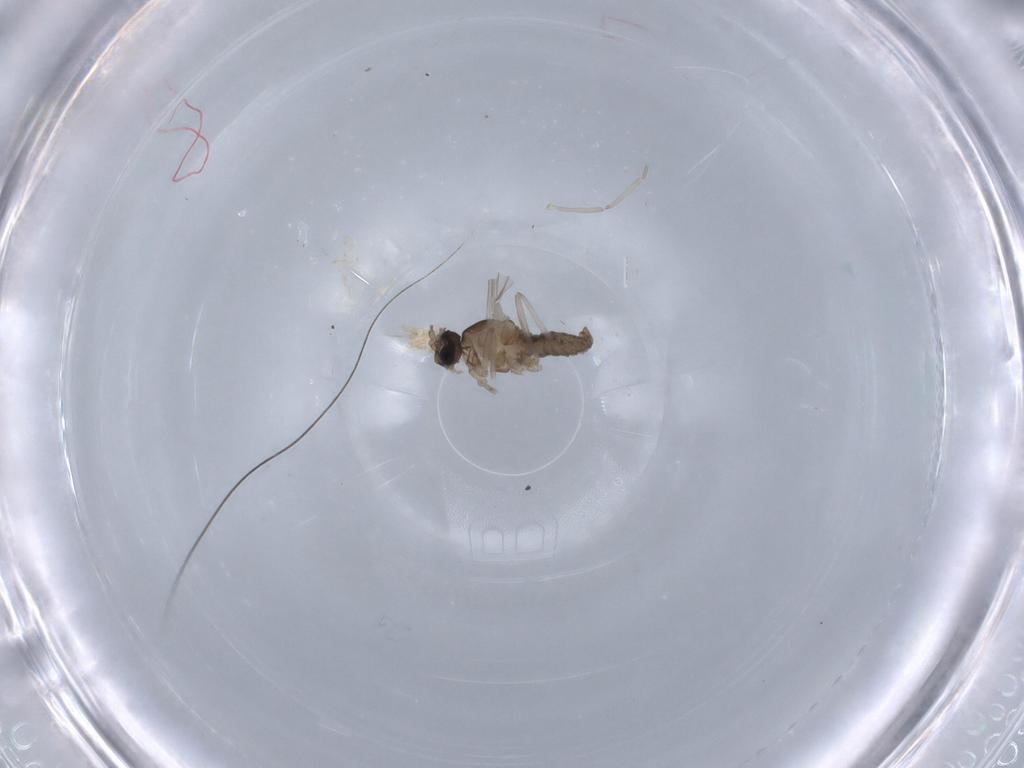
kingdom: Animalia
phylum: Arthropoda
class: Insecta
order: Diptera
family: Cecidomyiidae
